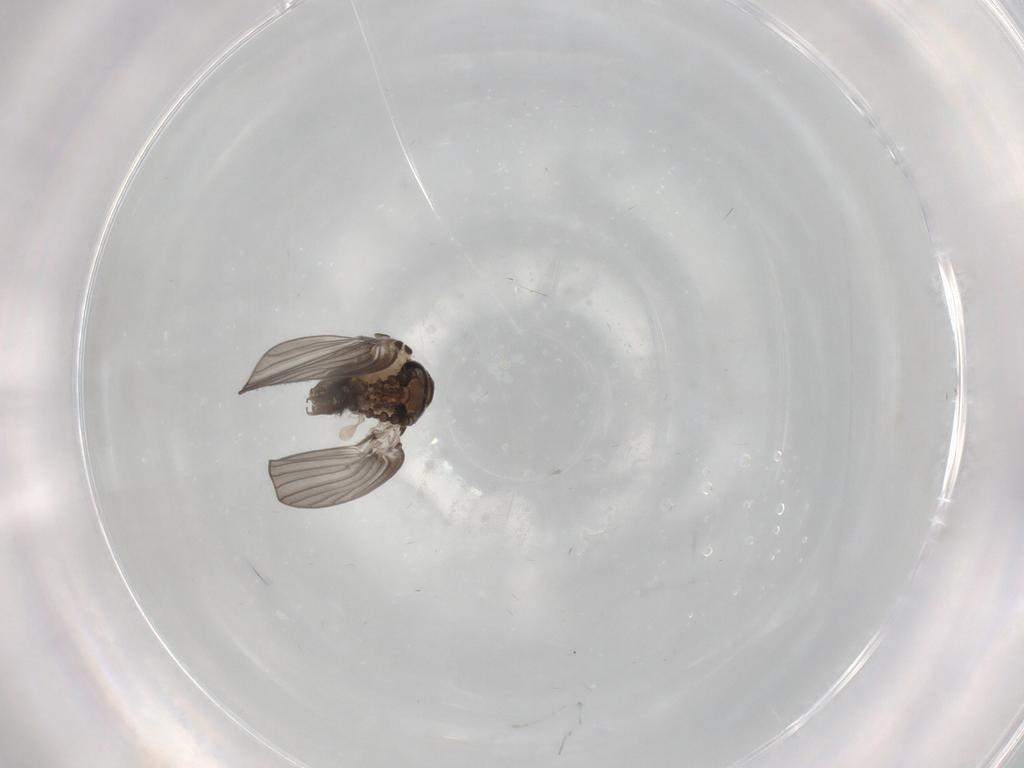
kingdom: Animalia
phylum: Arthropoda
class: Insecta
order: Diptera
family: Psychodidae
